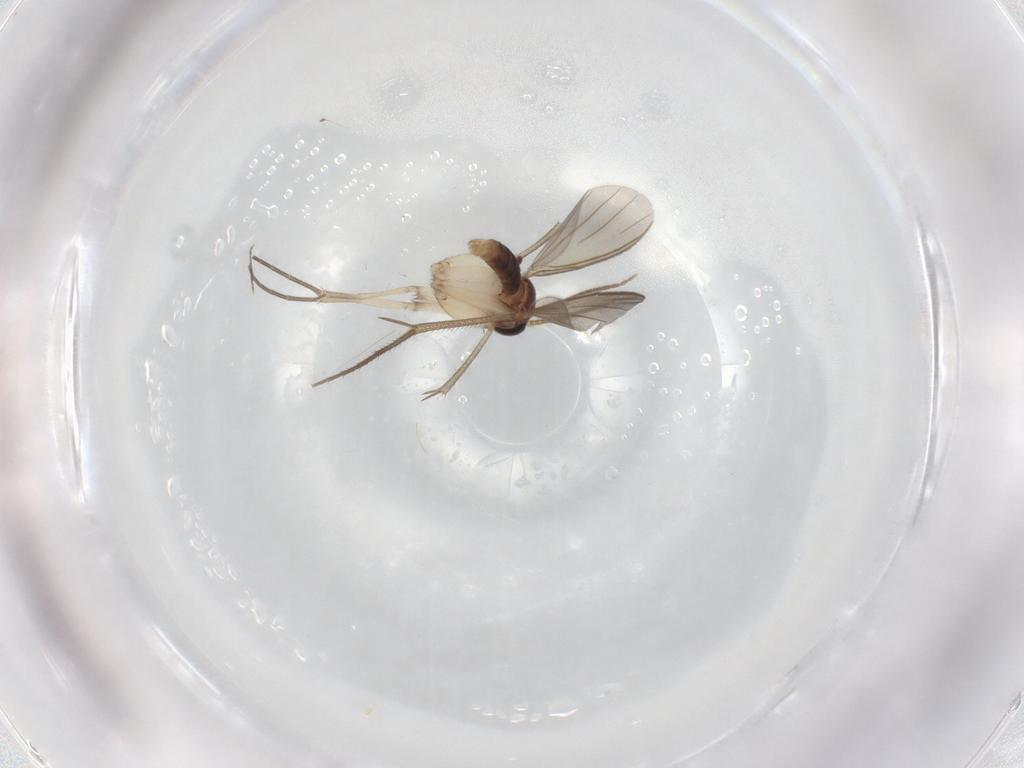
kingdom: Animalia
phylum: Arthropoda
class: Insecta
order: Diptera
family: Mycetophilidae
